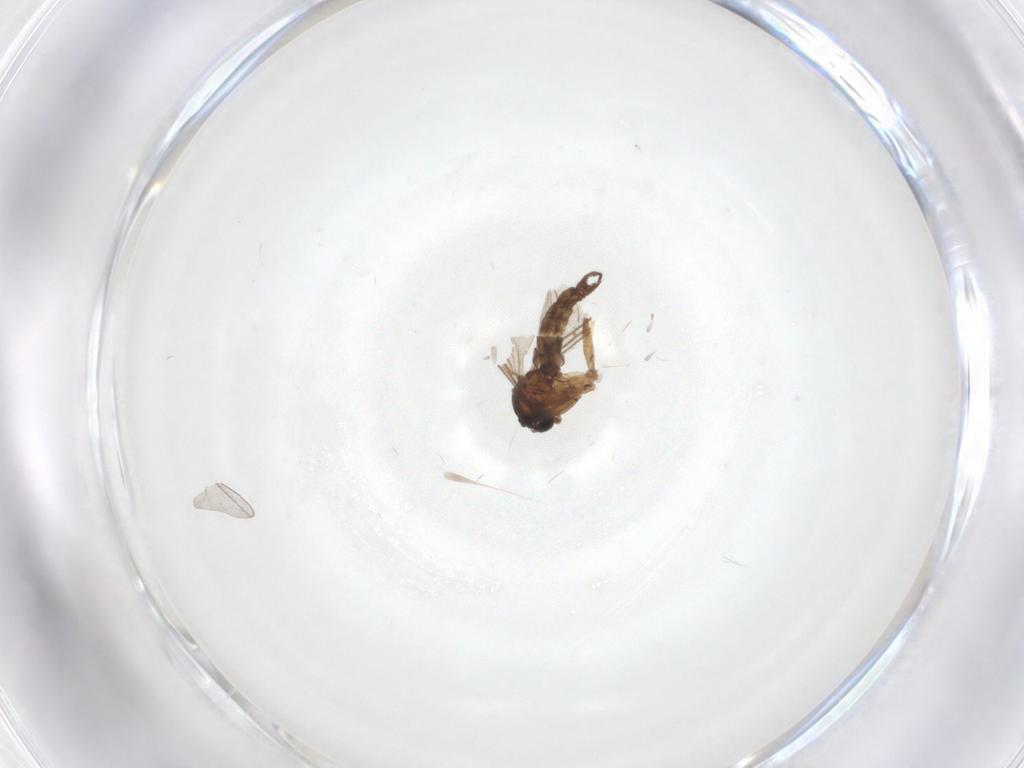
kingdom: Animalia
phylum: Arthropoda
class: Insecta
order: Diptera
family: Cecidomyiidae
